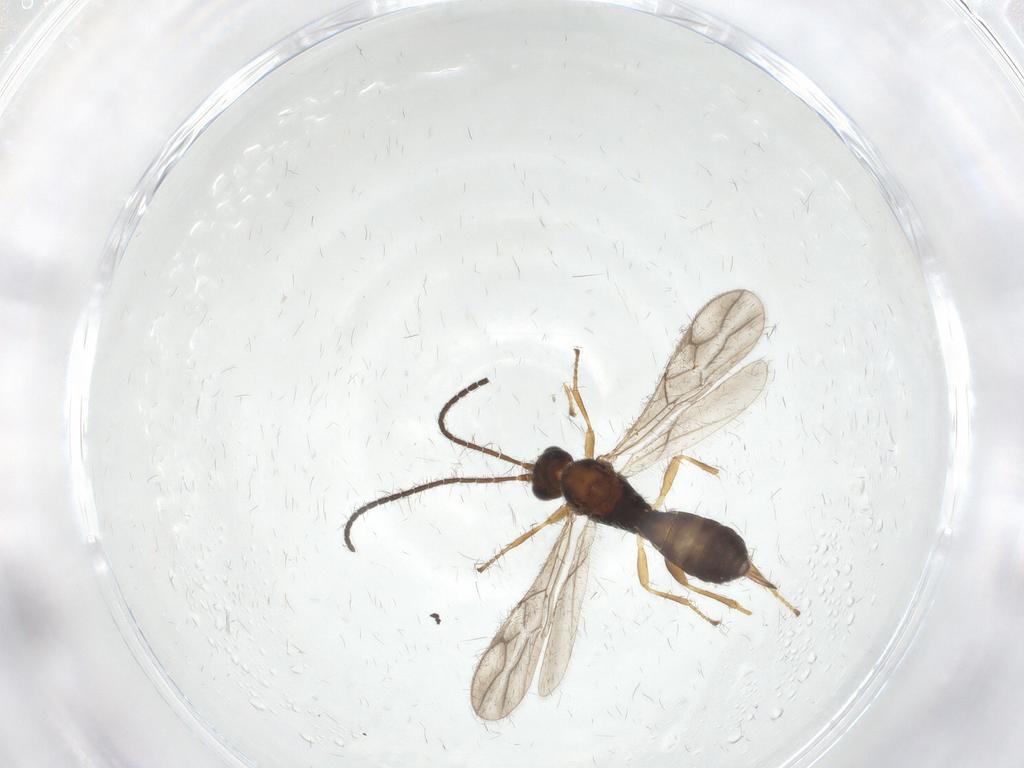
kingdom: Animalia
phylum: Arthropoda
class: Insecta
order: Hymenoptera
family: Braconidae
